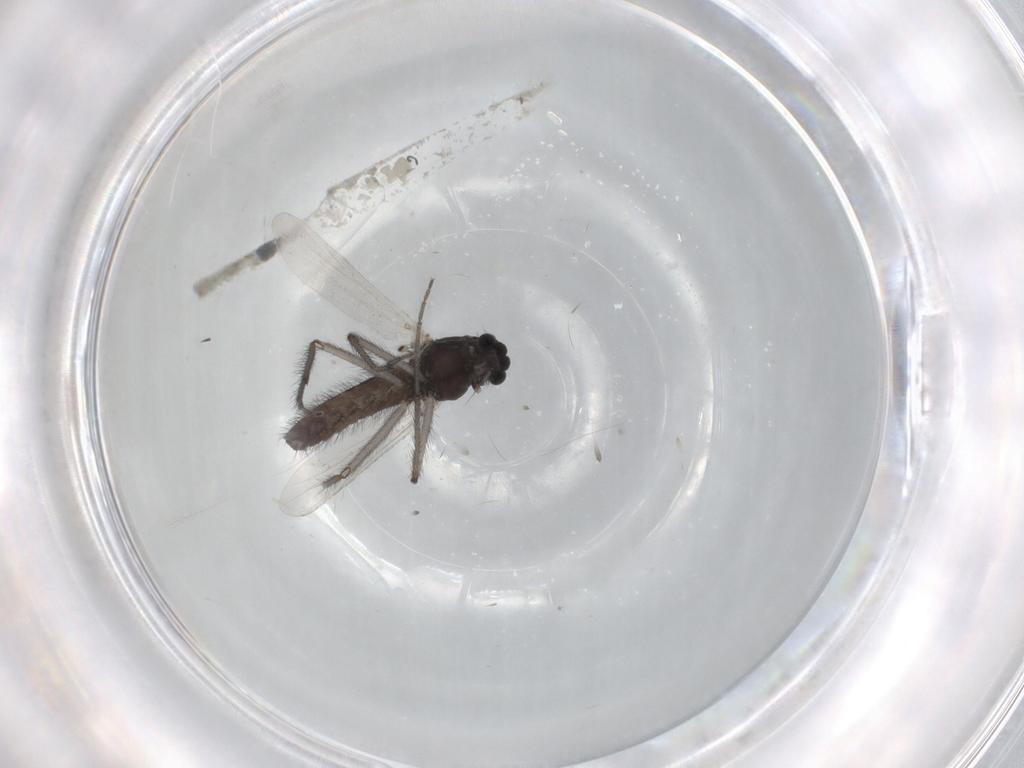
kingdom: Animalia
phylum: Arthropoda
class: Insecta
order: Diptera
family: Chironomidae
